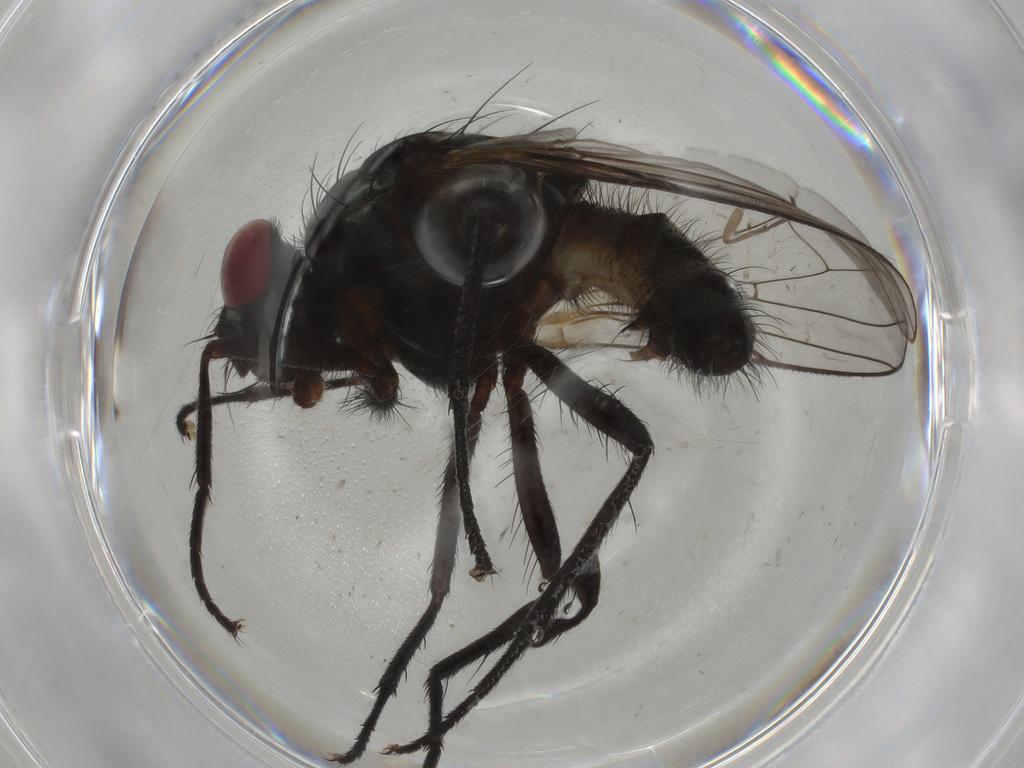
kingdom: Animalia
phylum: Arthropoda
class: Insecta
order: Diptera
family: Anthomyiidae
